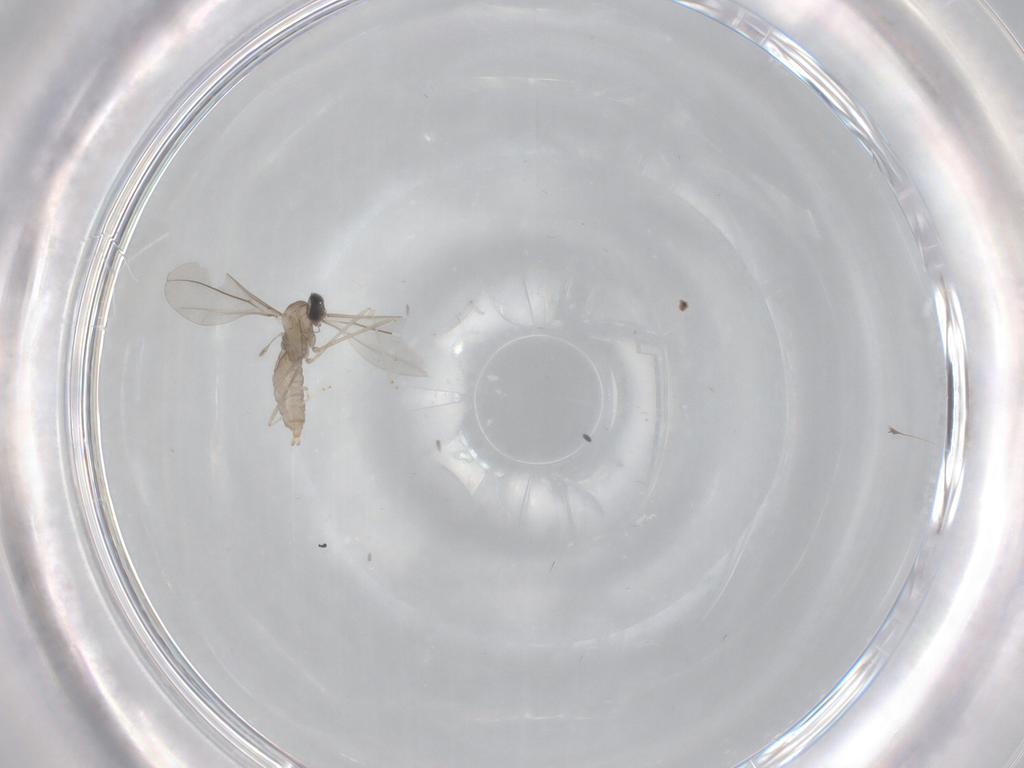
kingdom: Animalia
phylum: Arthropoda
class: Insecta
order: Diptera
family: Cecidomyiidae
